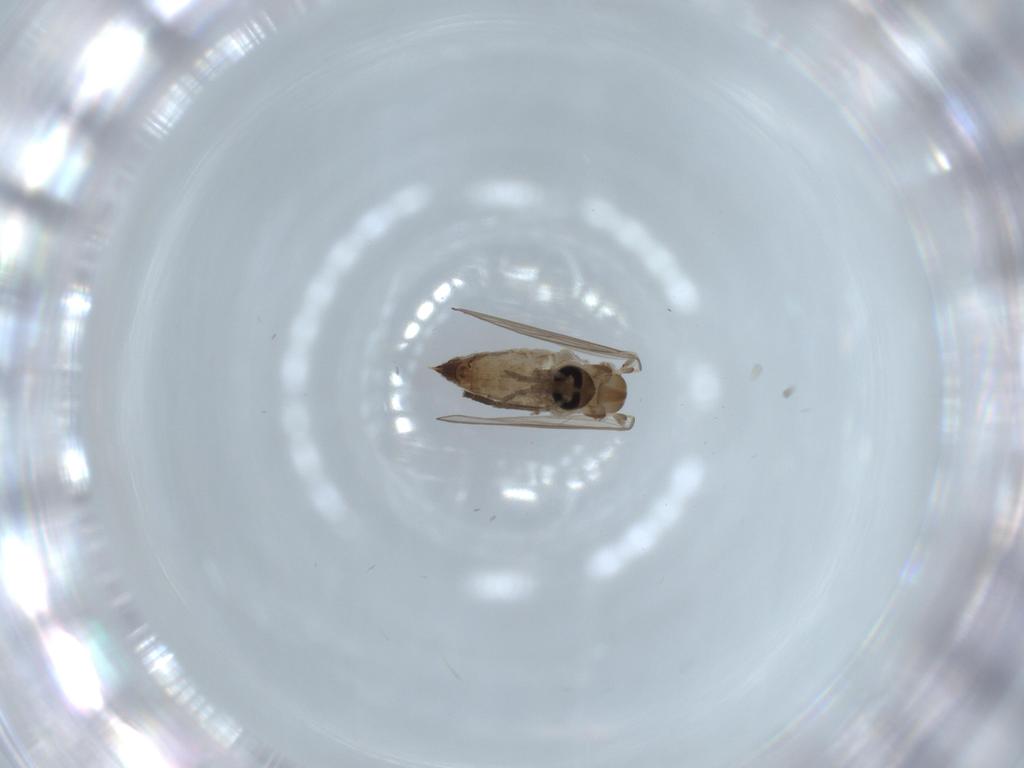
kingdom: Animalia
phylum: Arthropoda
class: Insecta
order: Diptera
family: Psychodidae
